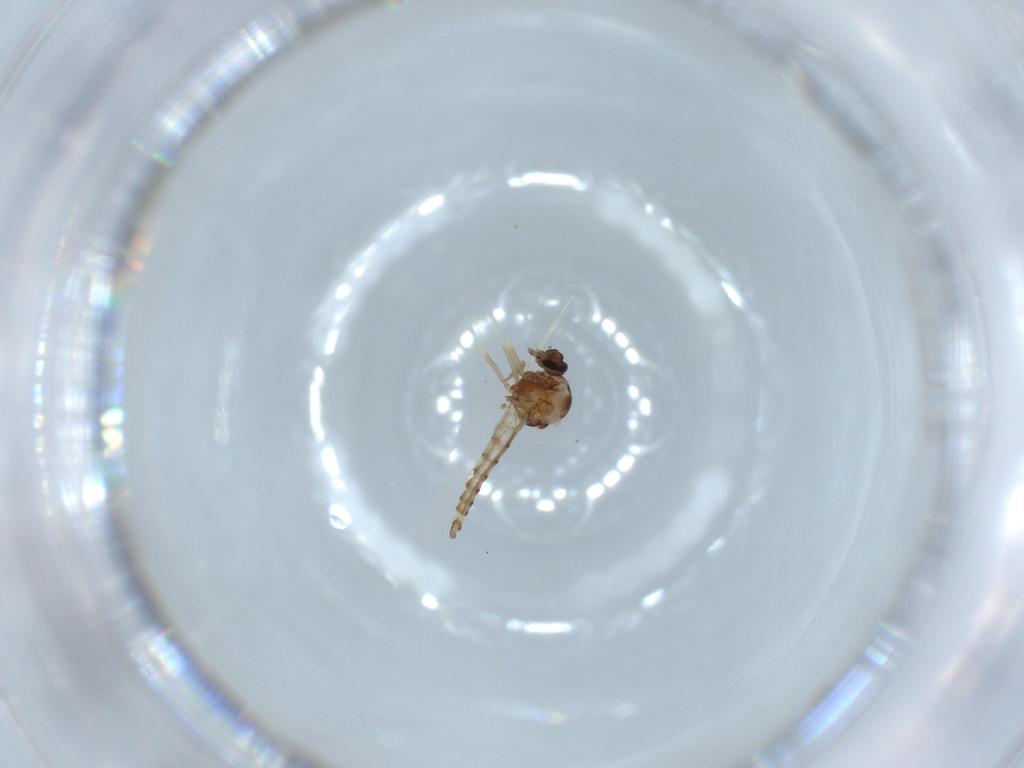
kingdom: Animalia
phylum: Arthropoda
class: Insecta
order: Diptera
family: Ceratopogonidae
